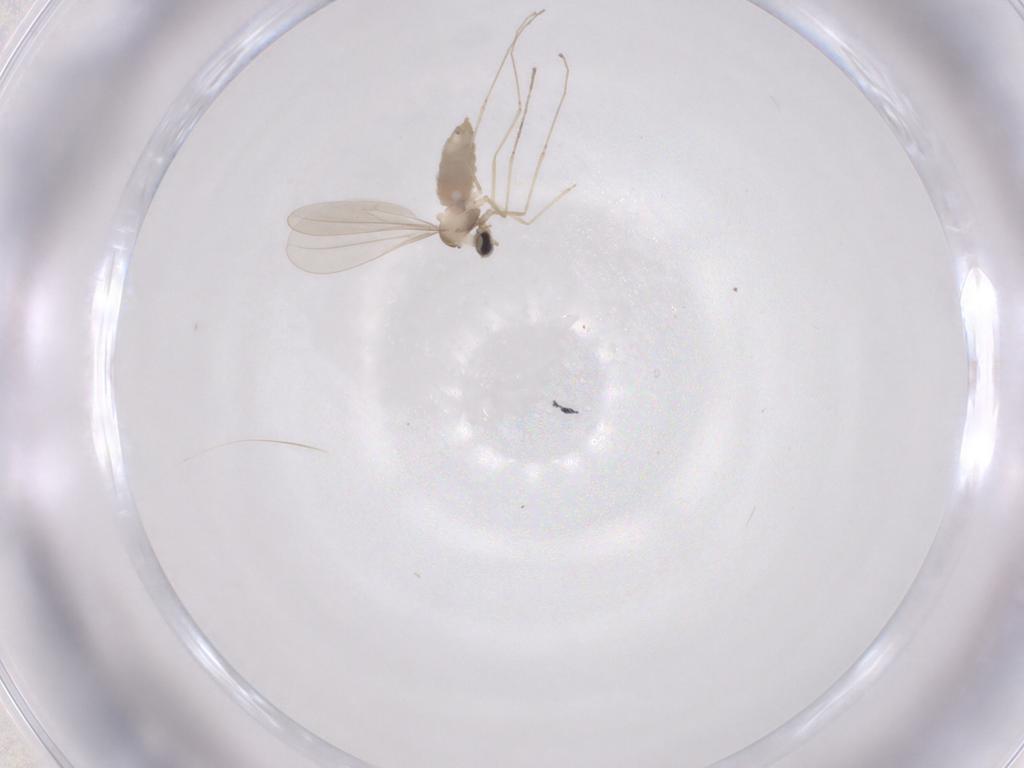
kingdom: Animalia
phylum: Arthropoda
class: Insecta
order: Diptera
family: Cecidomyiidae
